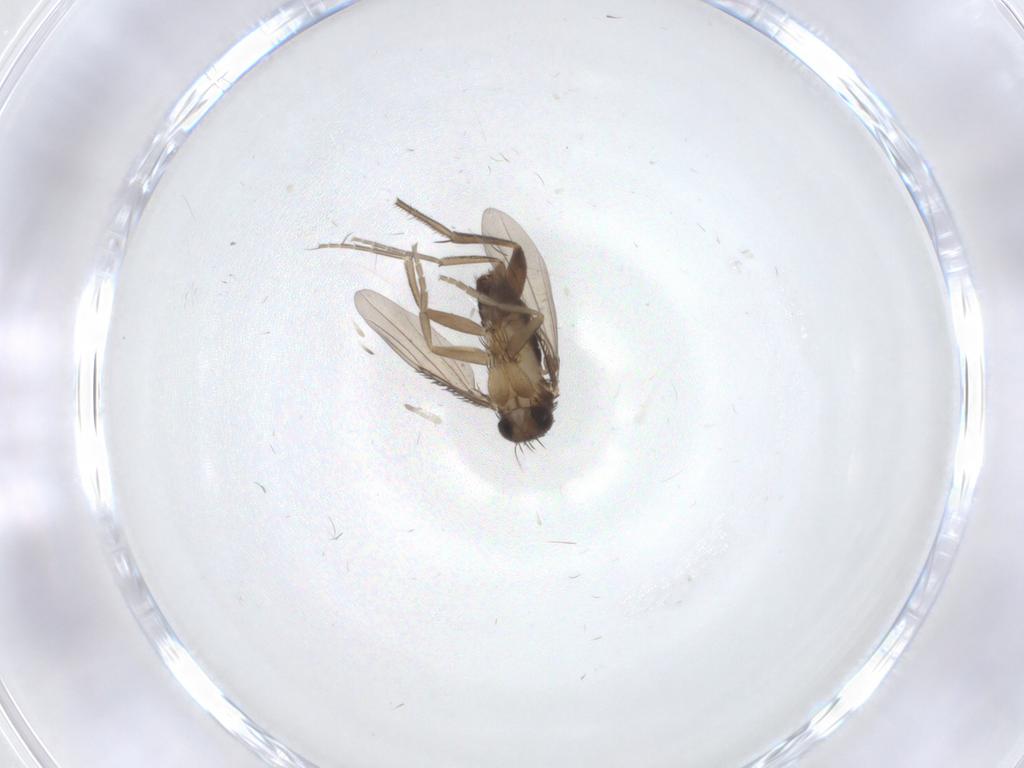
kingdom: Animalia
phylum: Arthropoda
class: Insecta
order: Diptera
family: Phoridae
